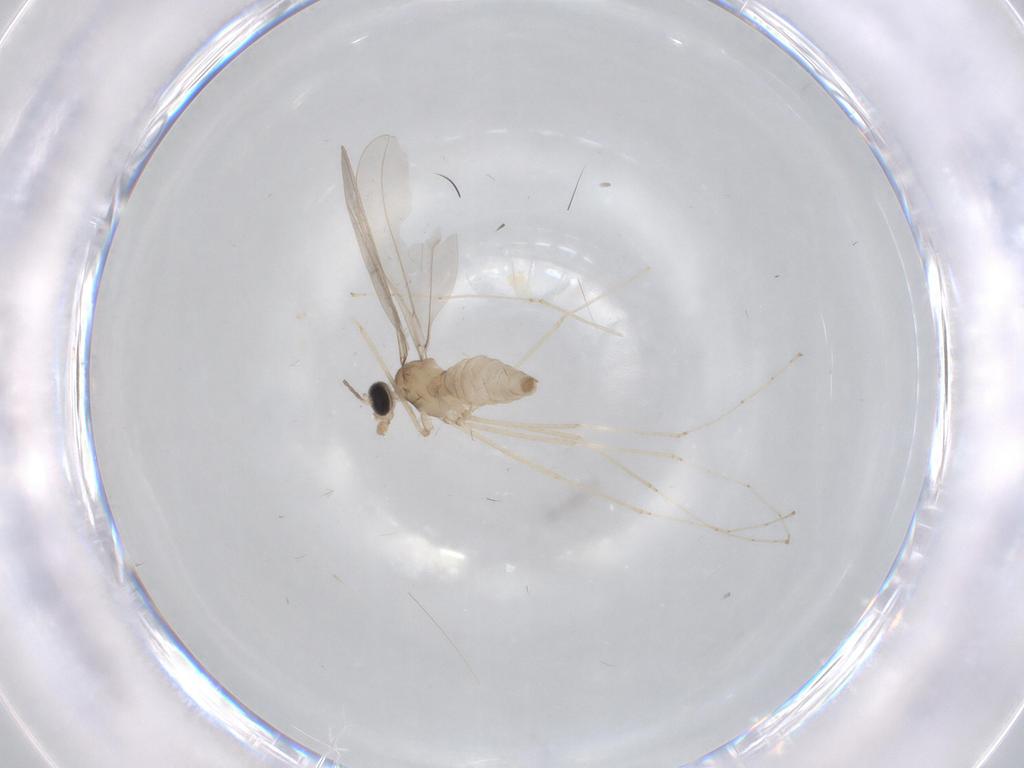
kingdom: Animalia
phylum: Arthropoda
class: Insecta
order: Diptera
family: Cecidomyiidae
